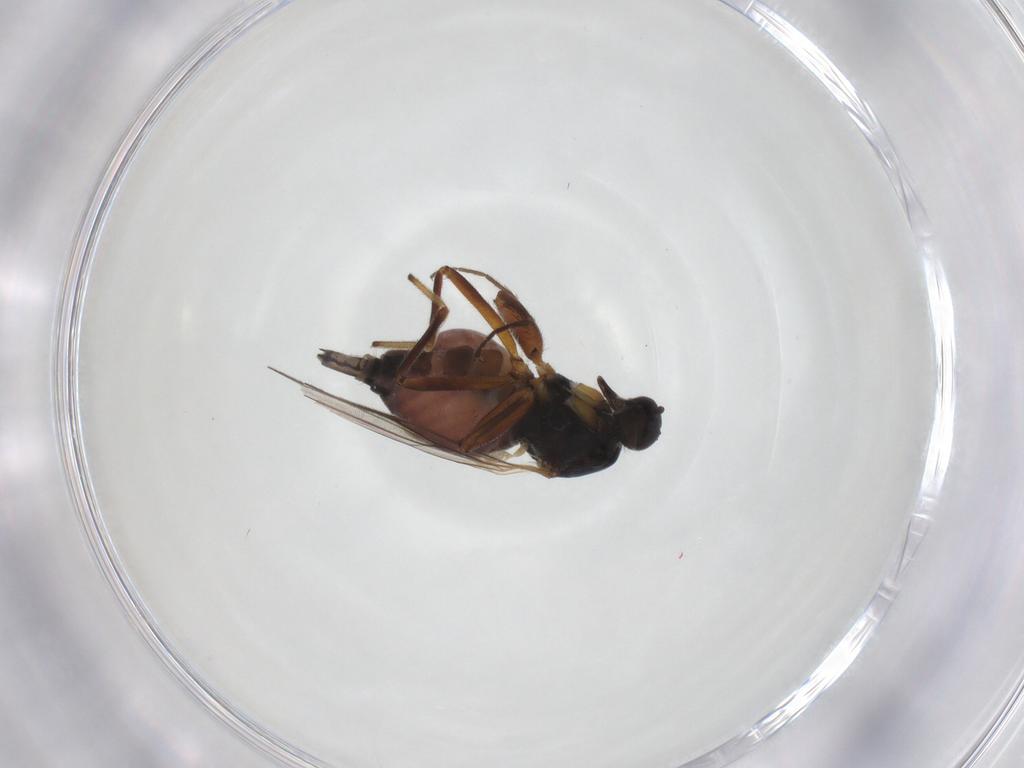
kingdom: Animalia
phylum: Arthropoda
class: Insecta
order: Diptera
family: Hybotidae
